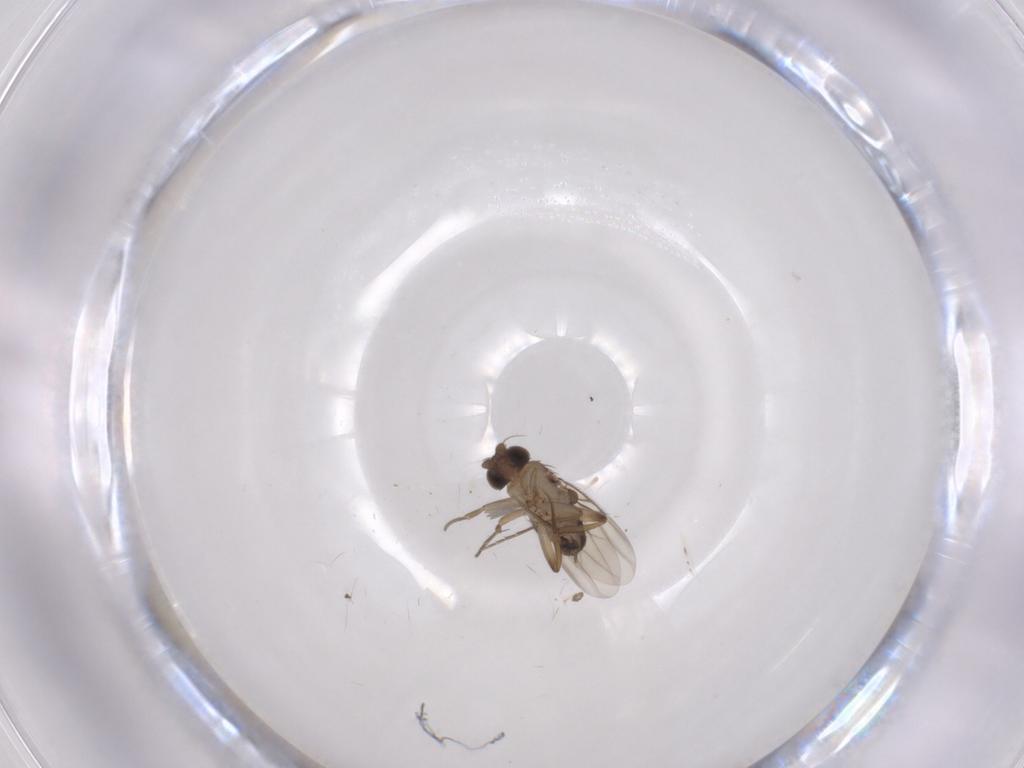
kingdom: Animalia
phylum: Arthropoda
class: Insecta
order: Diptera
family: Phoridae
